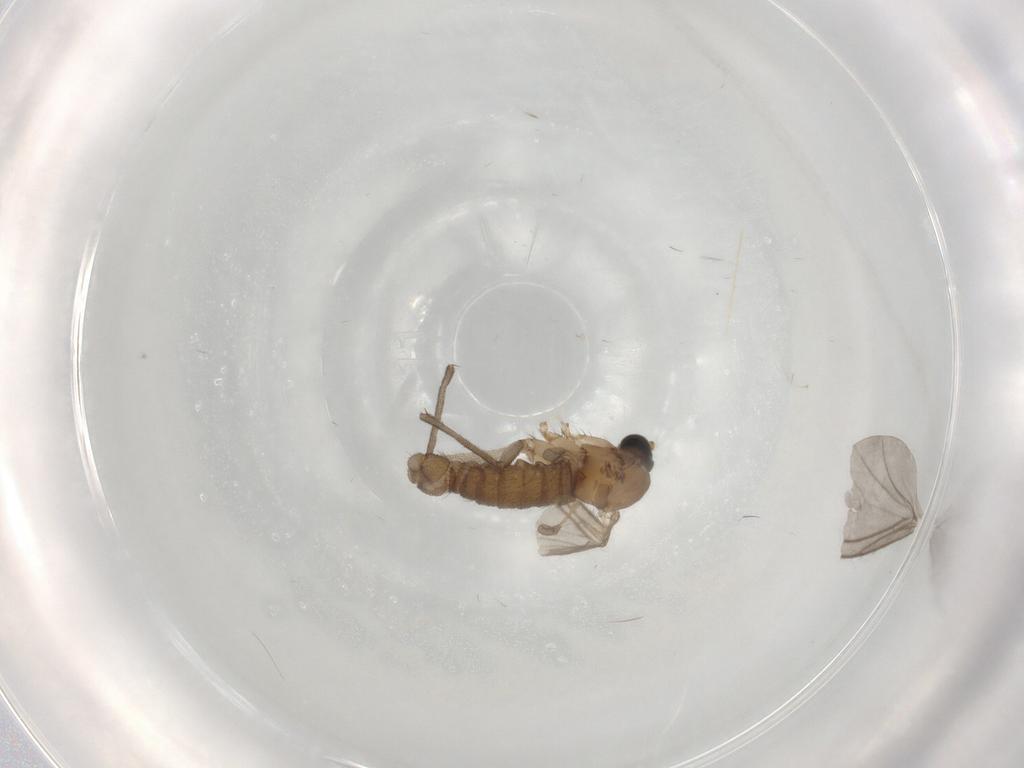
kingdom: Animalia
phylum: Arthropoda
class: Insecta
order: Diptera
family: Sciaridae
